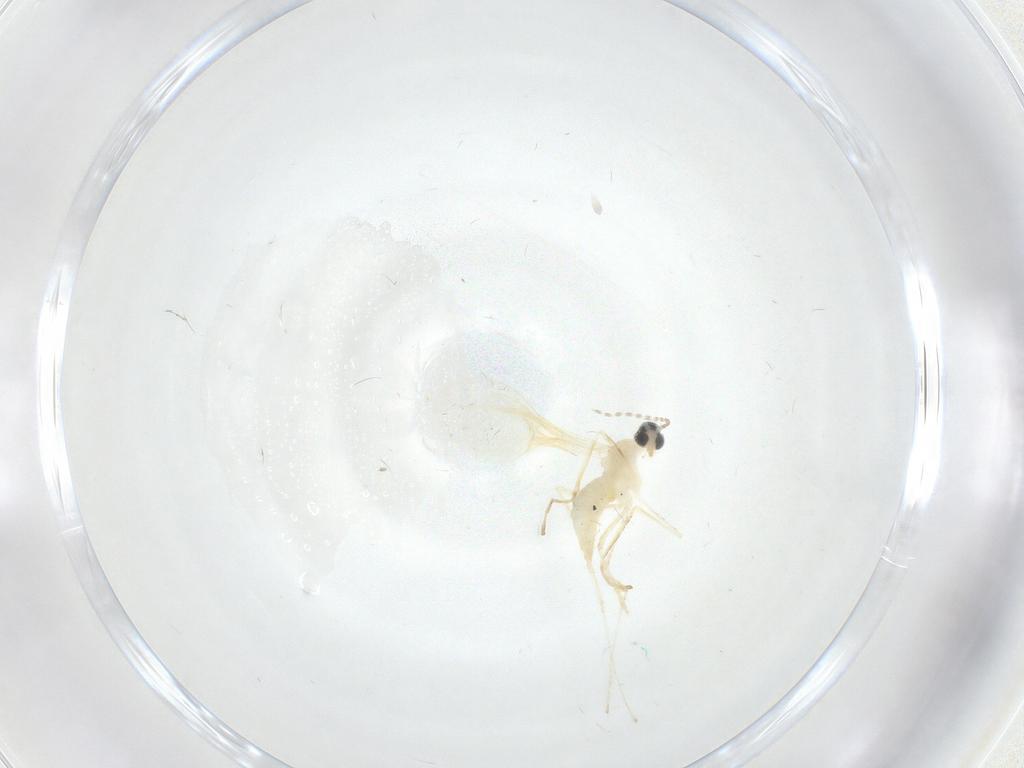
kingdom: Animalia
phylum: Arthropoda
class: Insecta
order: Diptera
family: Cecidomyiidae
